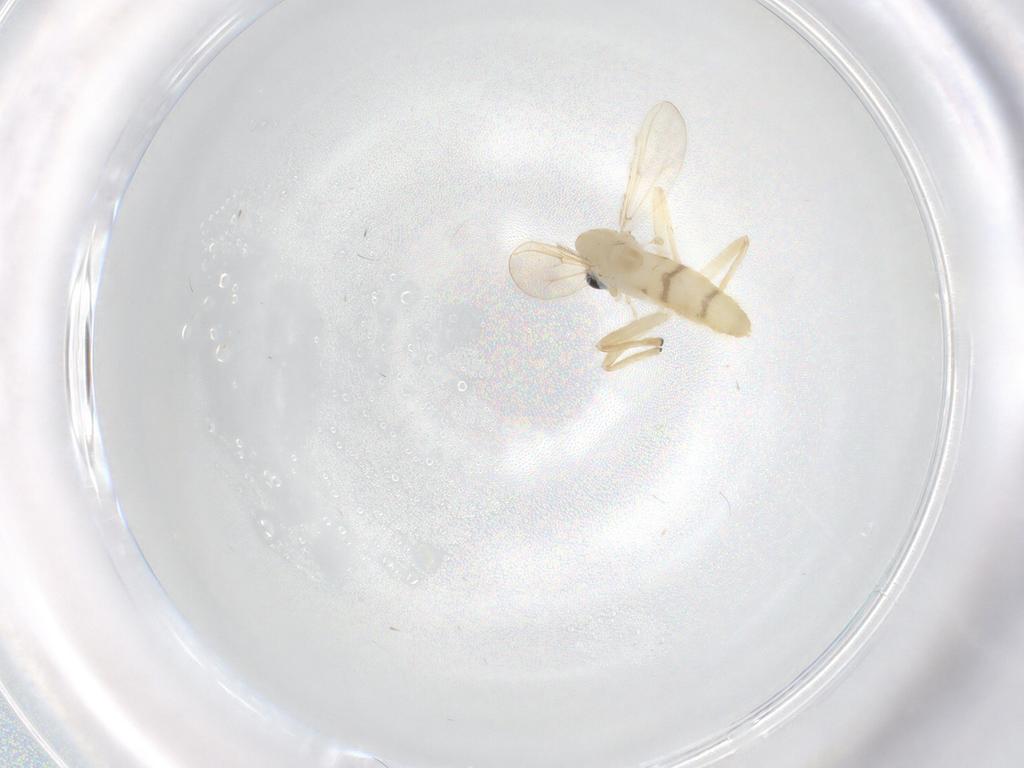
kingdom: Animalia
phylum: Arthropoda
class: Insecta
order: Diptera
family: Chironomidae
